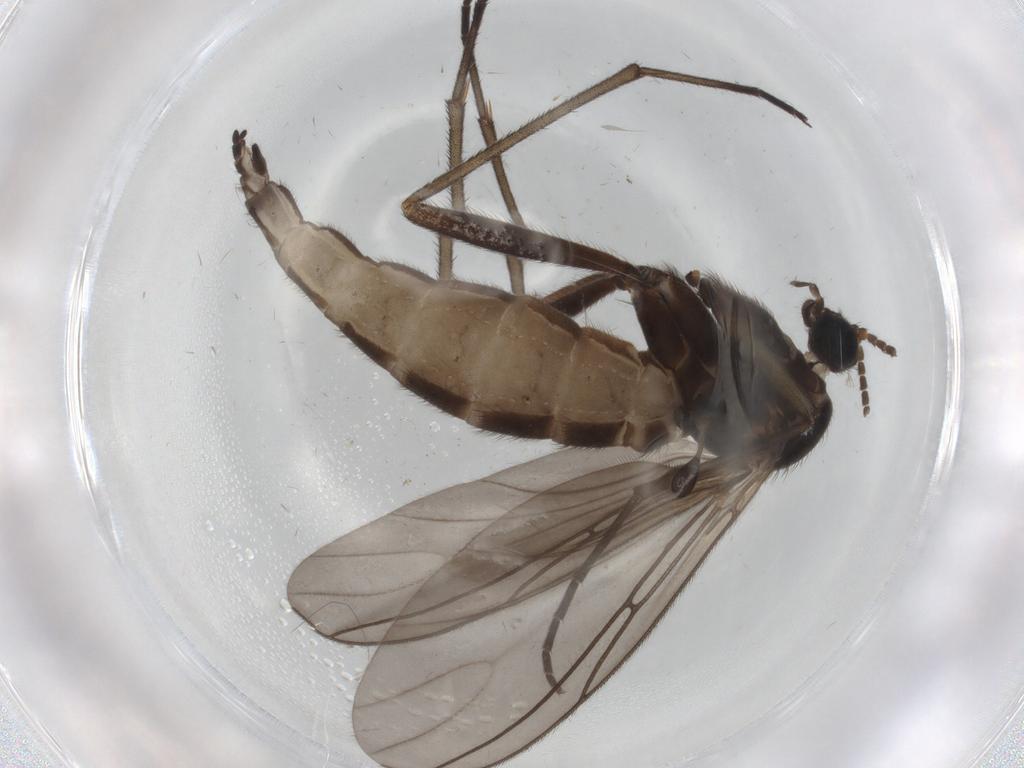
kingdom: Animalia
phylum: Arthropoda
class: Insecta
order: Diptera
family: Sciaridae
